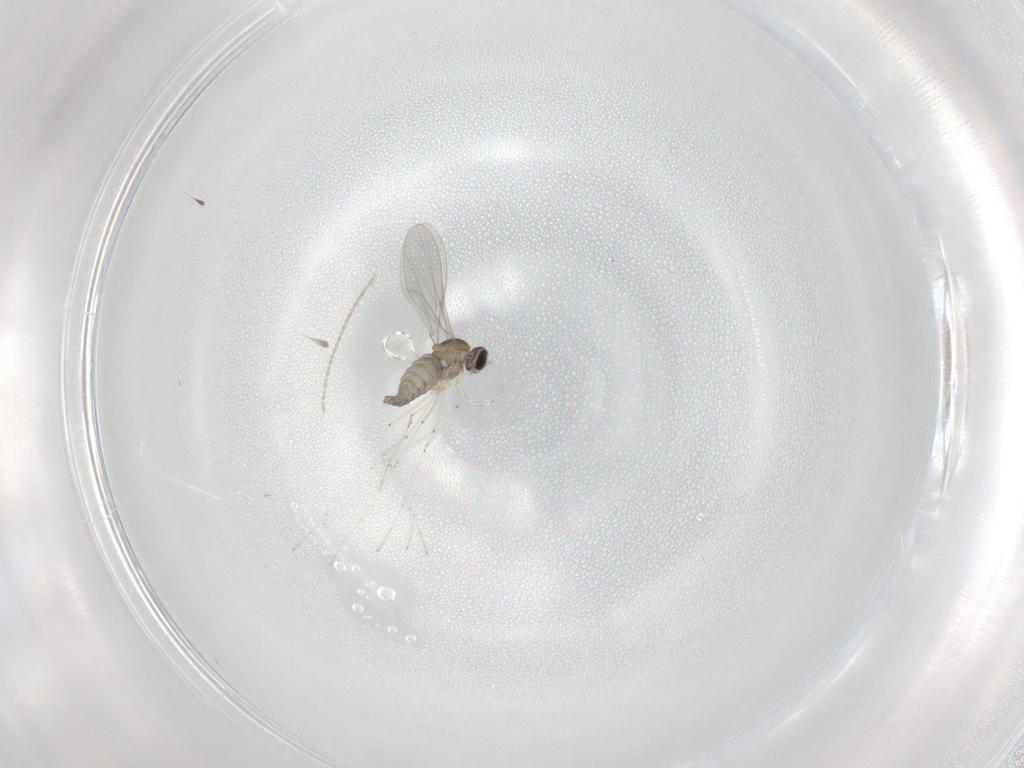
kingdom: Animalia
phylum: Arthropoda
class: Insecta
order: Diptera
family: Cecidomyiidae
